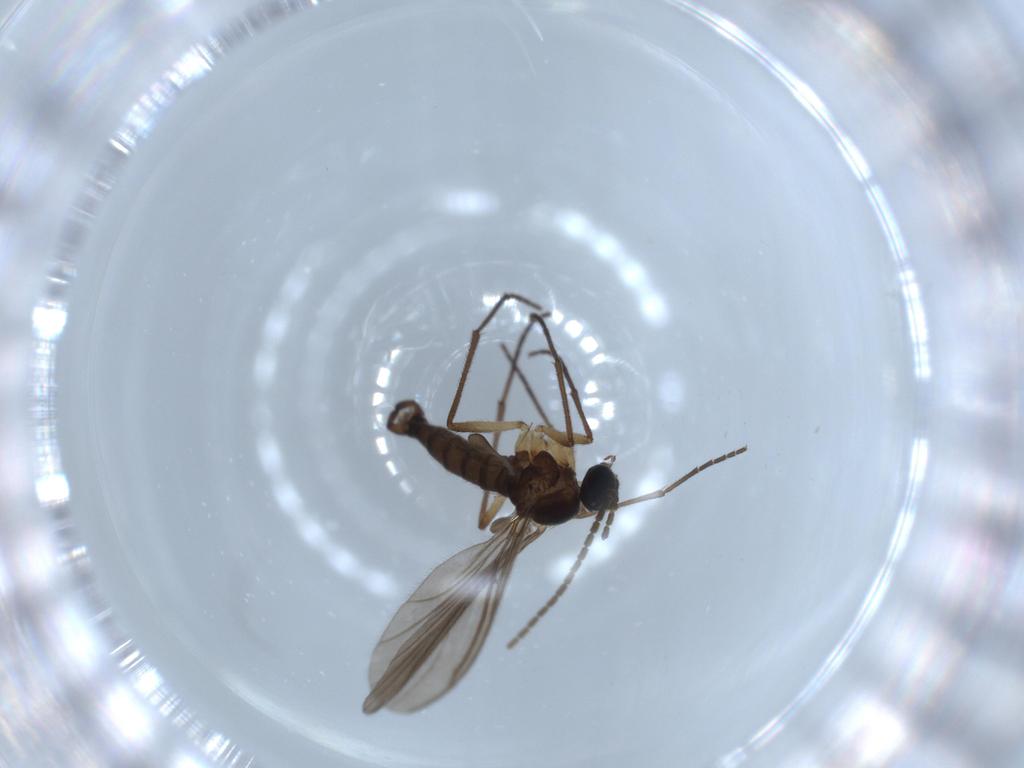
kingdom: Animalia
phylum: Arthropoda
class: Insecta
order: Diptera
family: Sciaridae
